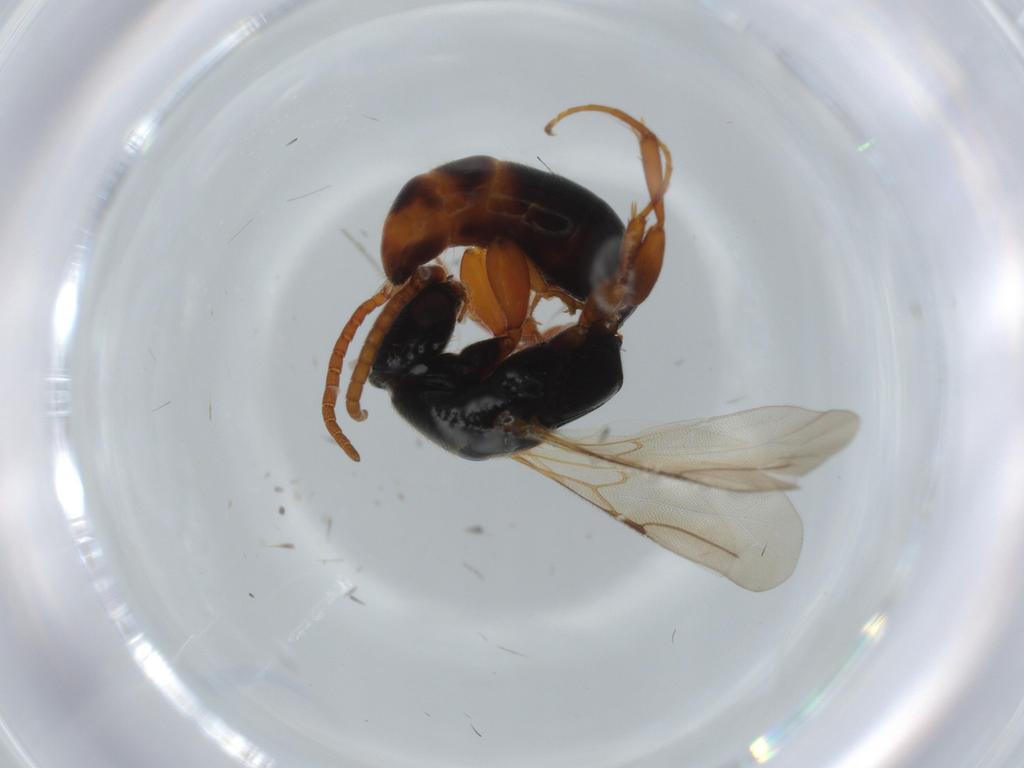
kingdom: Animalia
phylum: Arthropoda
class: Insecta
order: Hymenoptera
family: Bethylidae
